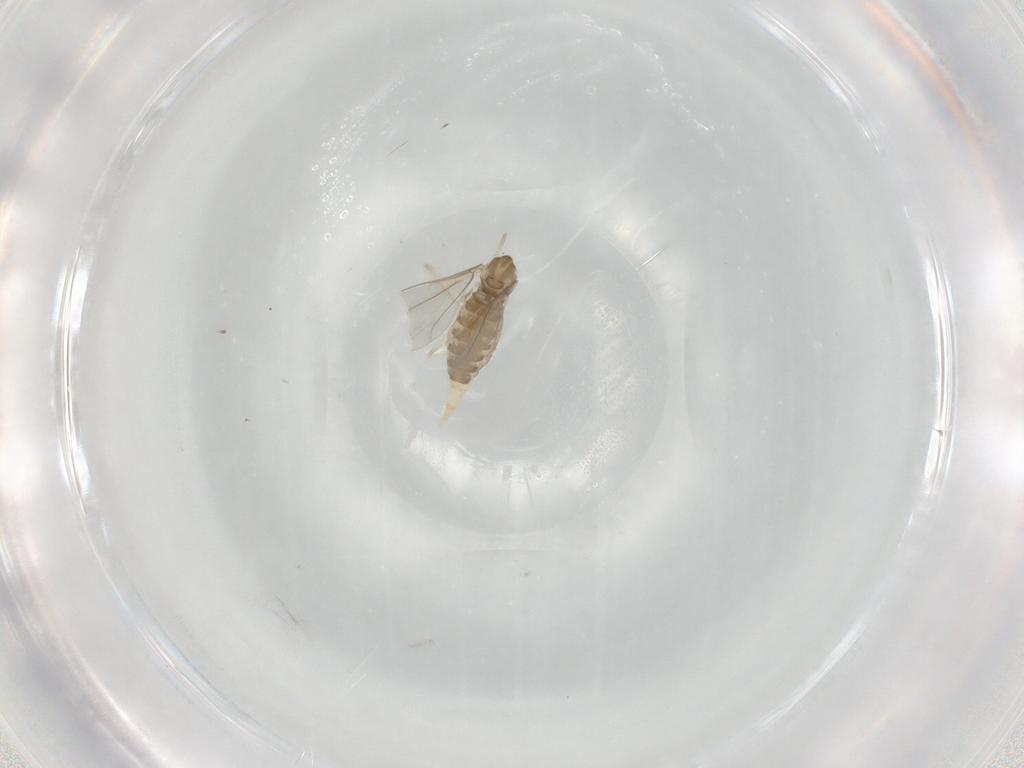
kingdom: Animalia
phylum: Arthropoda
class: Insecta
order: Diptera
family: Cecidomyiidae
